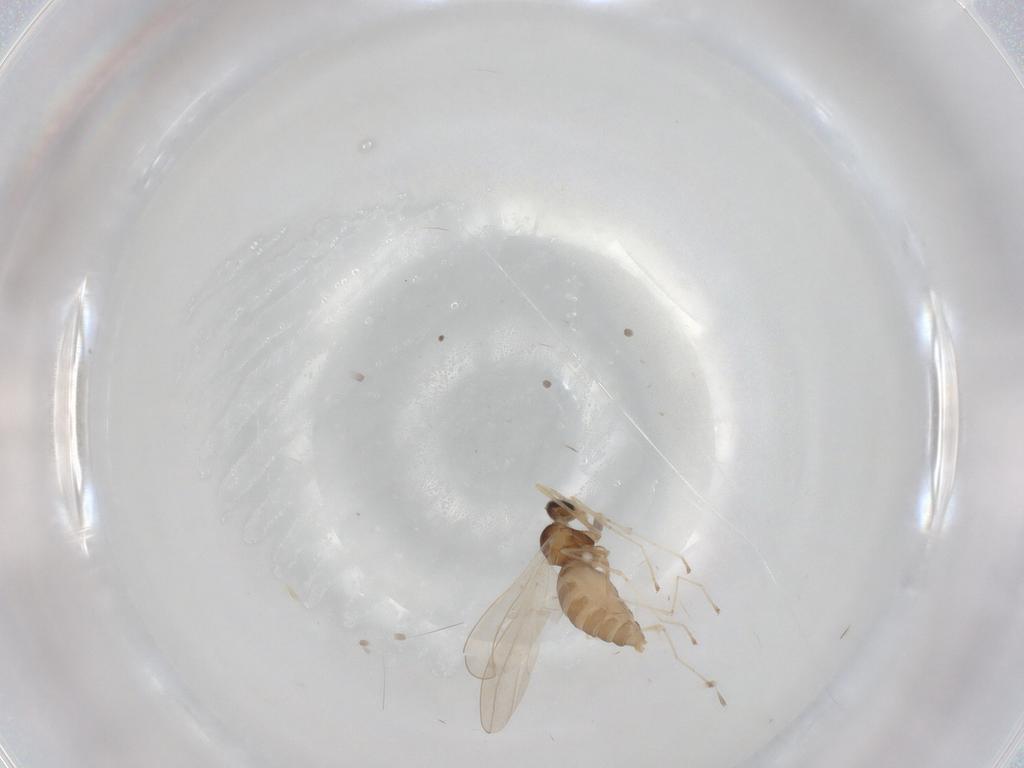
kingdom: Animalia
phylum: Arthropoda
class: Insecta
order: Diptera
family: Cecidomyiidae
